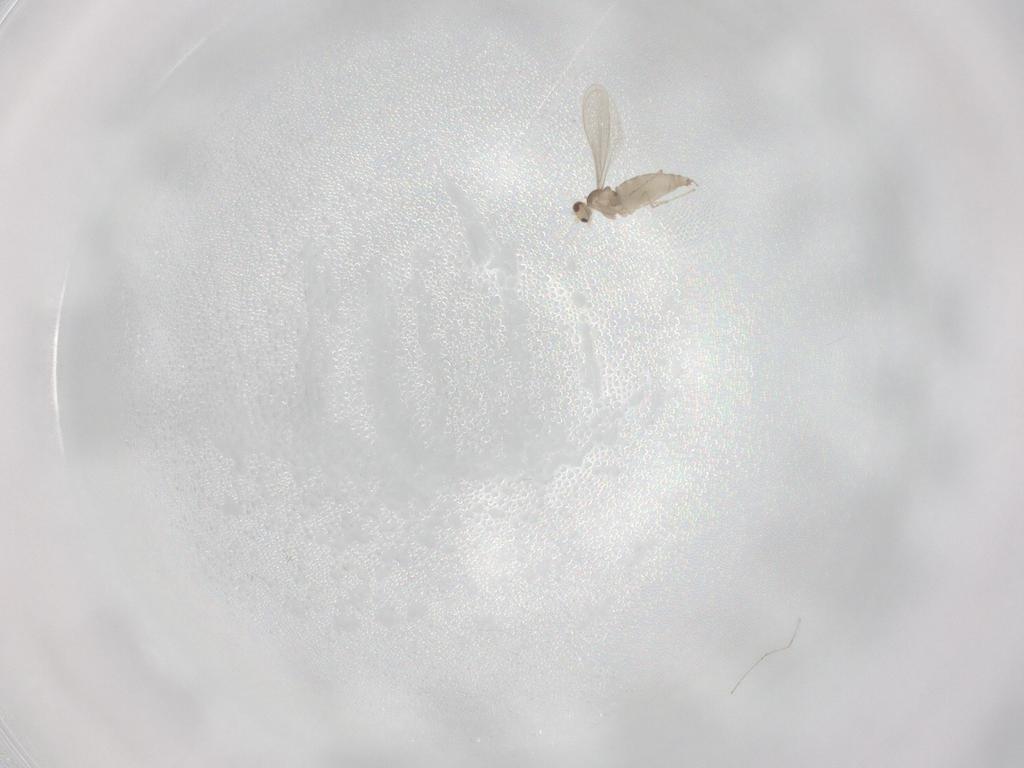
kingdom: Animalia
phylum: Arthropoda
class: Insecta
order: Diptera
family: Cecidomyiidae
